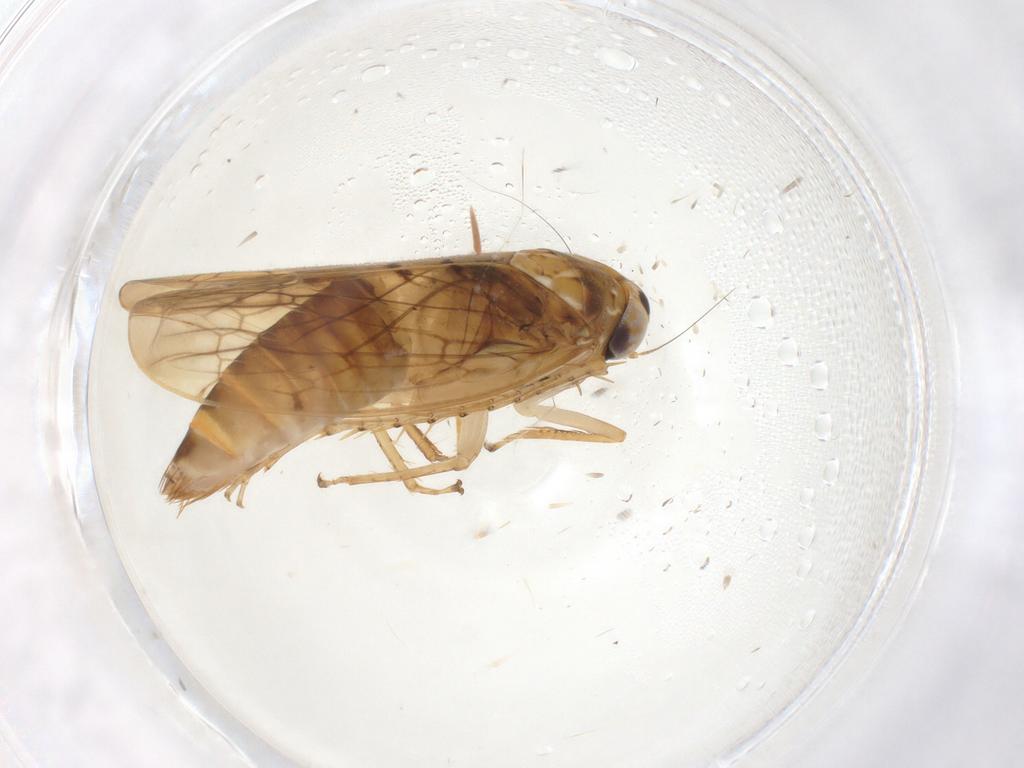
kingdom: Animalia
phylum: Arthropoda
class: Insecta
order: Hemiptera
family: Cicadellidae
